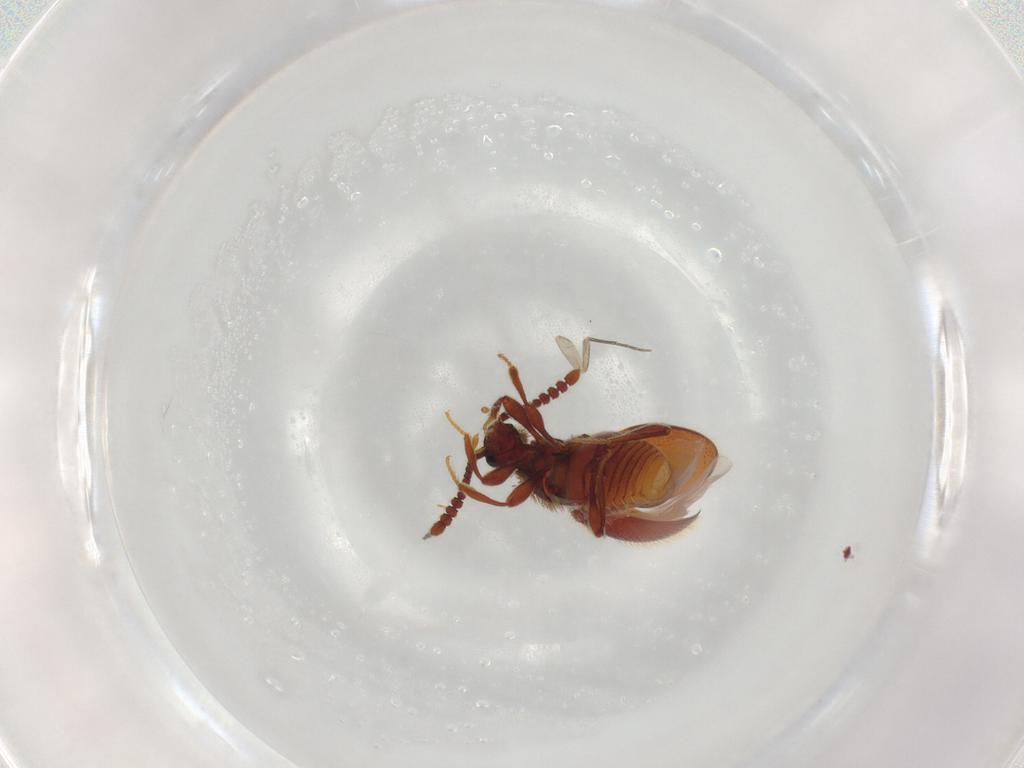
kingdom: Animalia
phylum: Arthropoda
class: Insecta
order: Coleoptera
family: Staphylinidae
